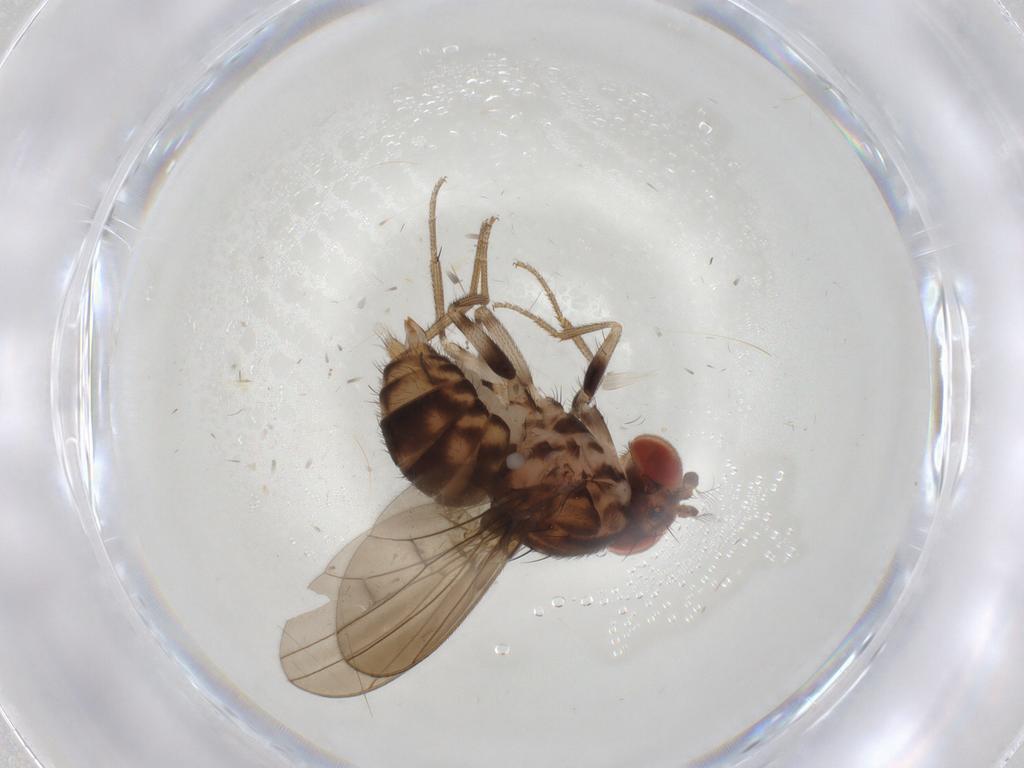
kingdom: Animalia
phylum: Arthropoda
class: Insecta
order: Diptera
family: Drosophilidae
